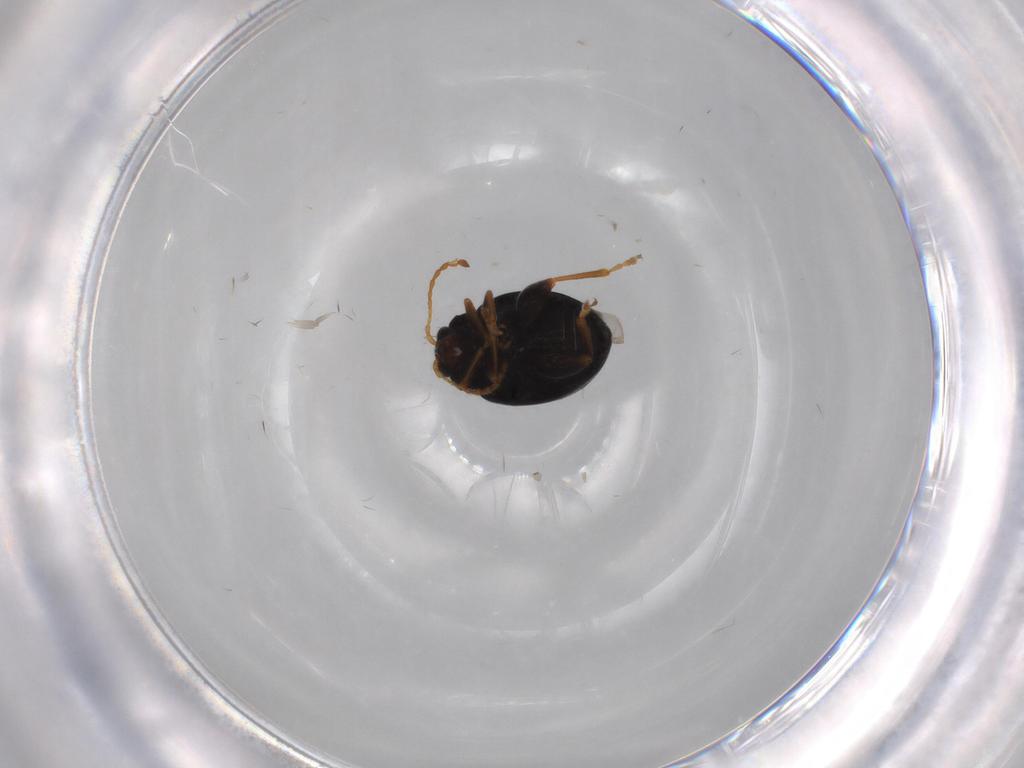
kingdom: Animalia
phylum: Arthropoda
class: Insecta
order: Coleoptera
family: Chrysomelidae
